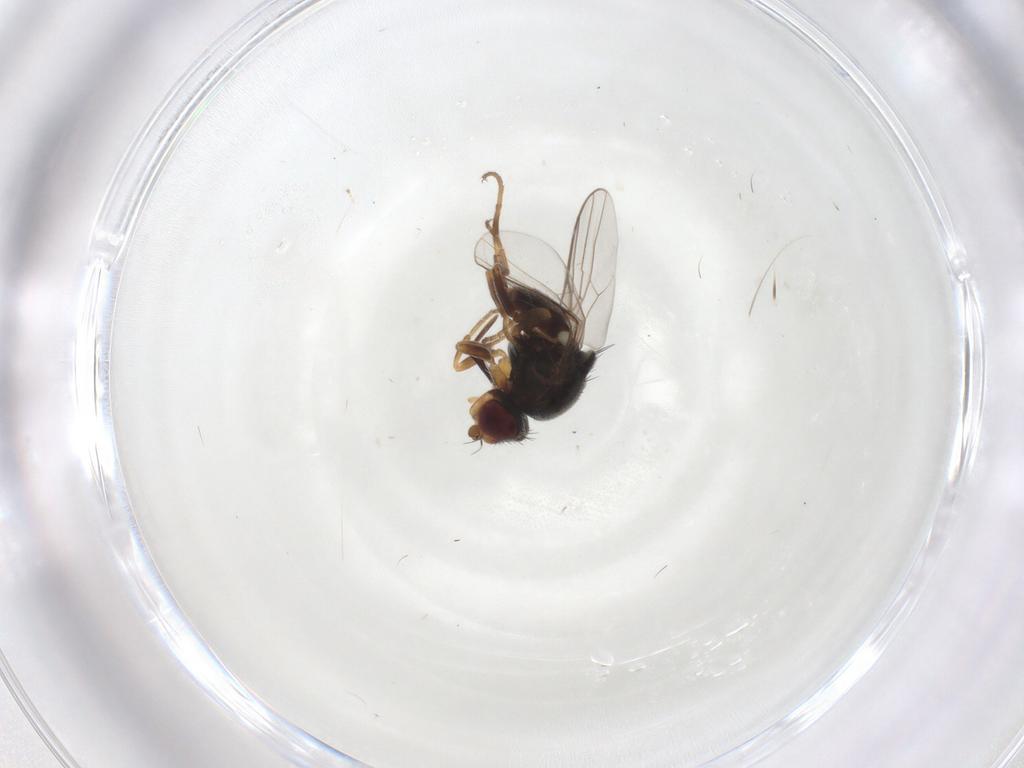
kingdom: Animalia
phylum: Arthropoda
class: Insecta
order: Diptera
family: Chloropidae
